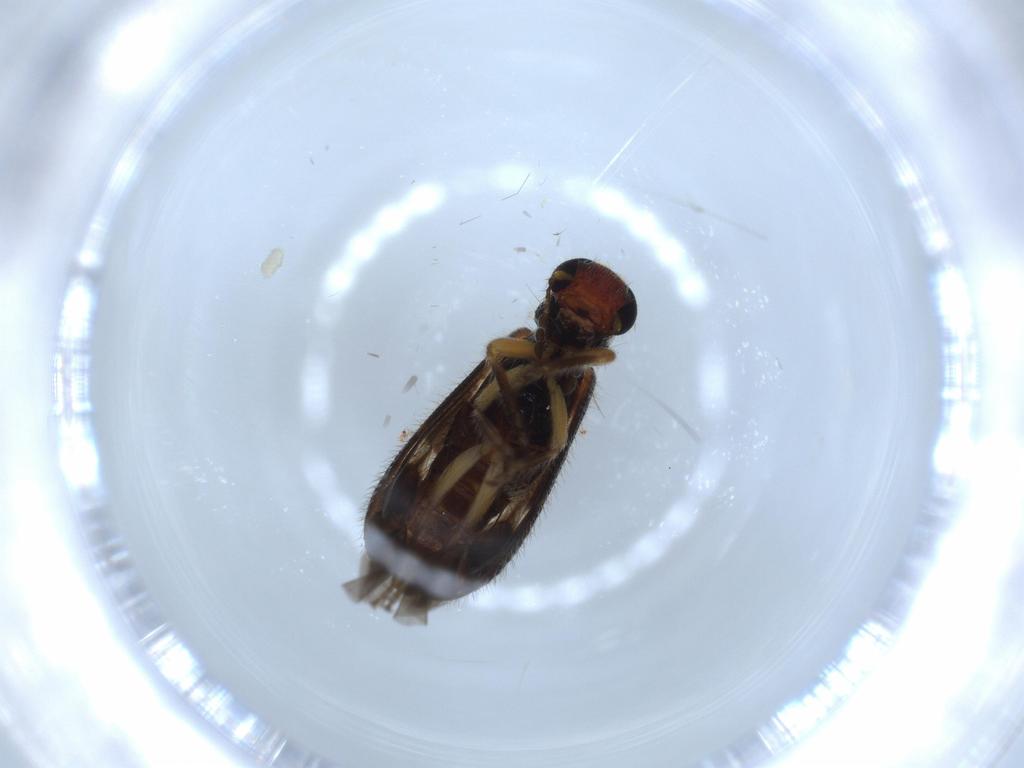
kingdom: Animalia
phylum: Arthropoda
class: Insecta
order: Coleoptera
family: Cleridae
